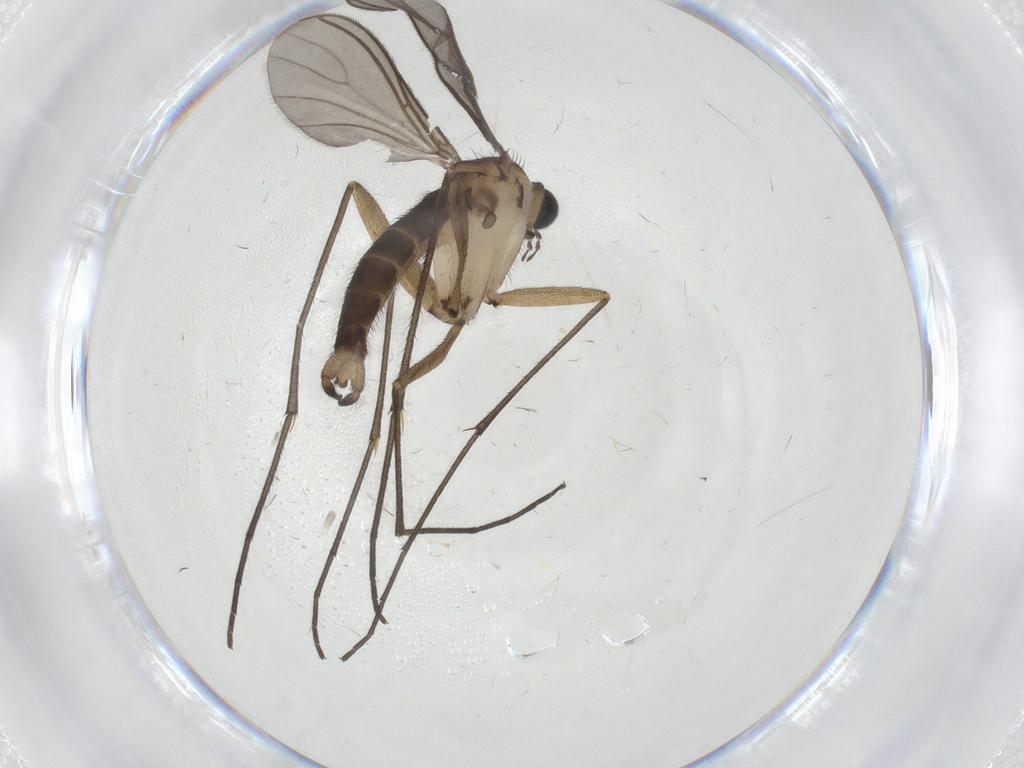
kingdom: Animalia
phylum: Arthropoda
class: Insecta
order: Diptera
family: Sciaridae
